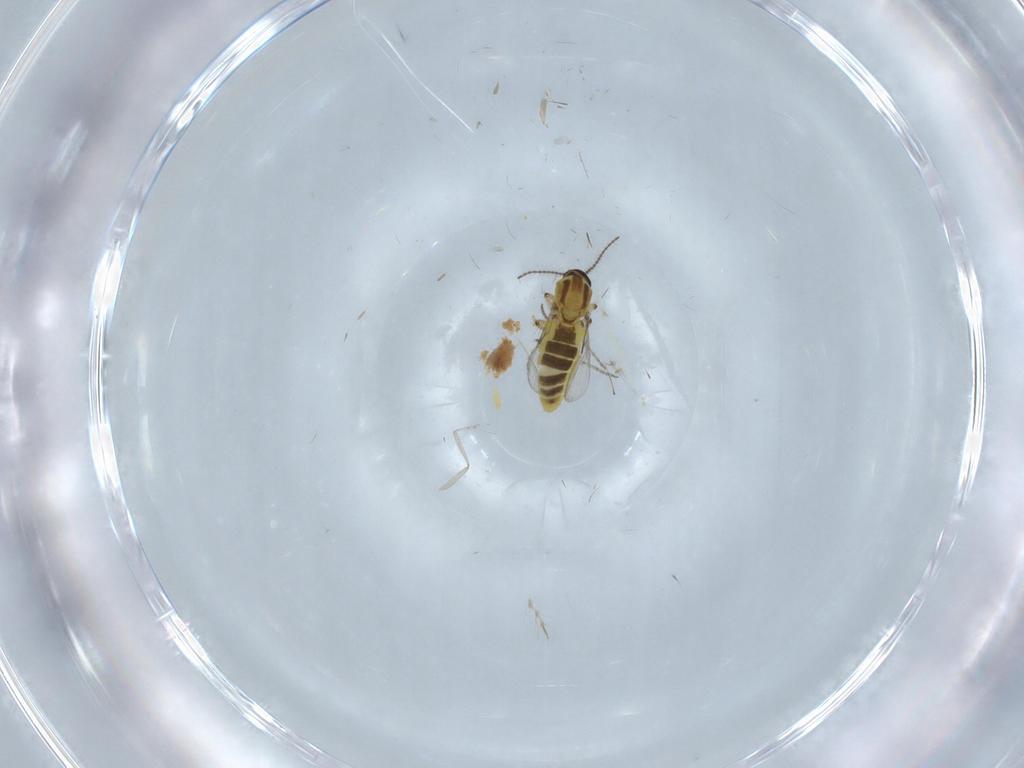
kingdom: Animalia
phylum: Arthropoda
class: Insecta
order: Diptera
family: Ceratopogonidae
